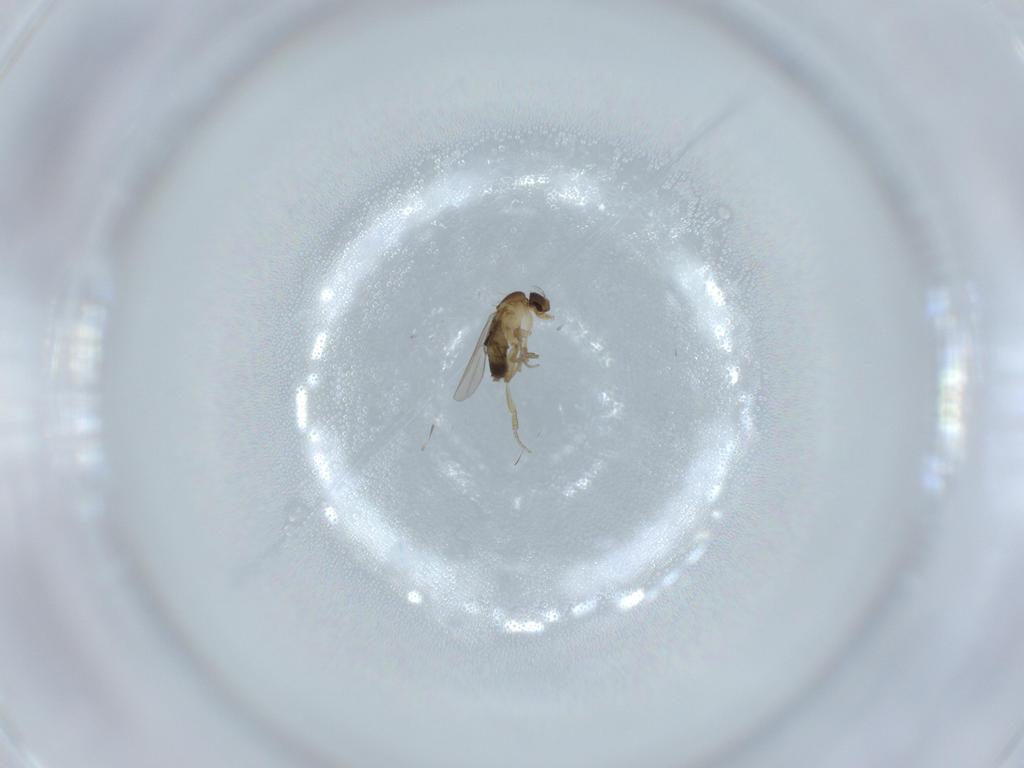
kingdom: Animalia
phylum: Arthropoda
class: Insecta
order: Diptera
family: Phoridae
